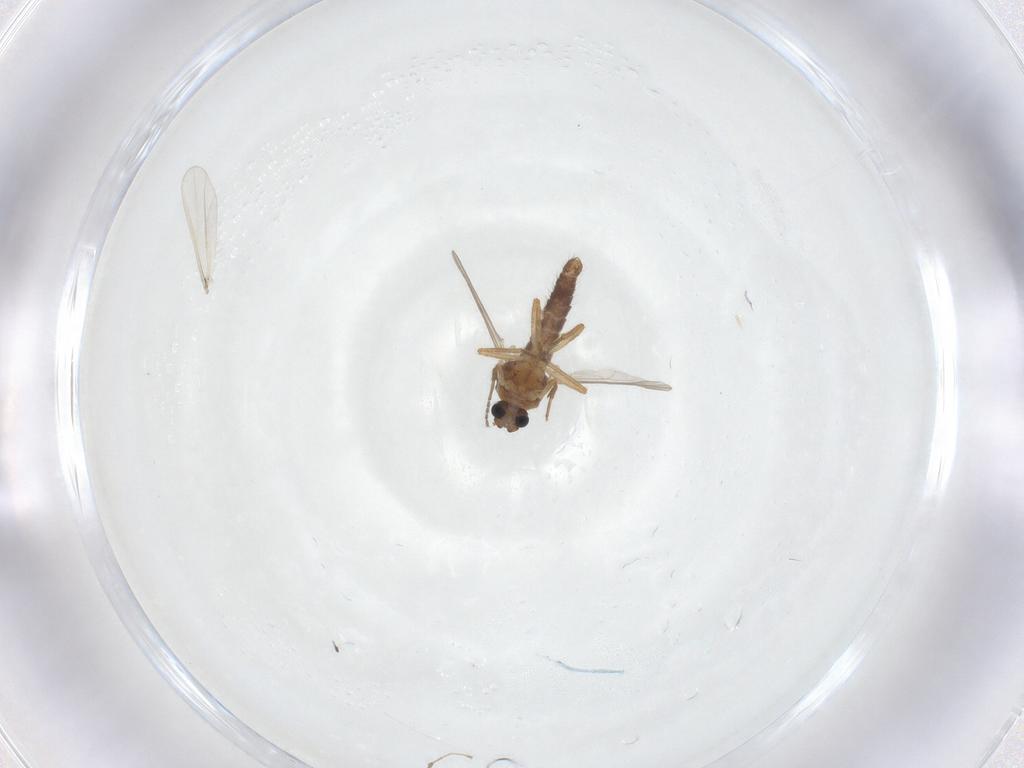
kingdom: Animalia
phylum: Arthropoda
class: Insecta
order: Diptera
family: Ceratopogonidae
